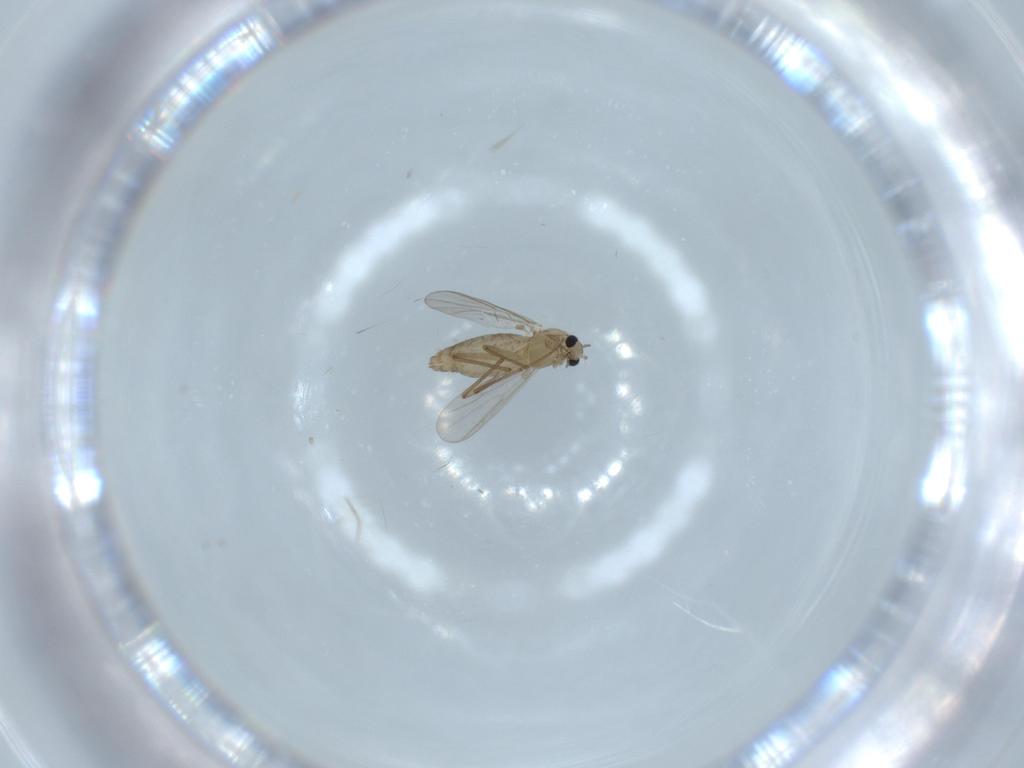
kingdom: Animalia
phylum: Arthropoda
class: Insecta
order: Diptera
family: Chironomidae
